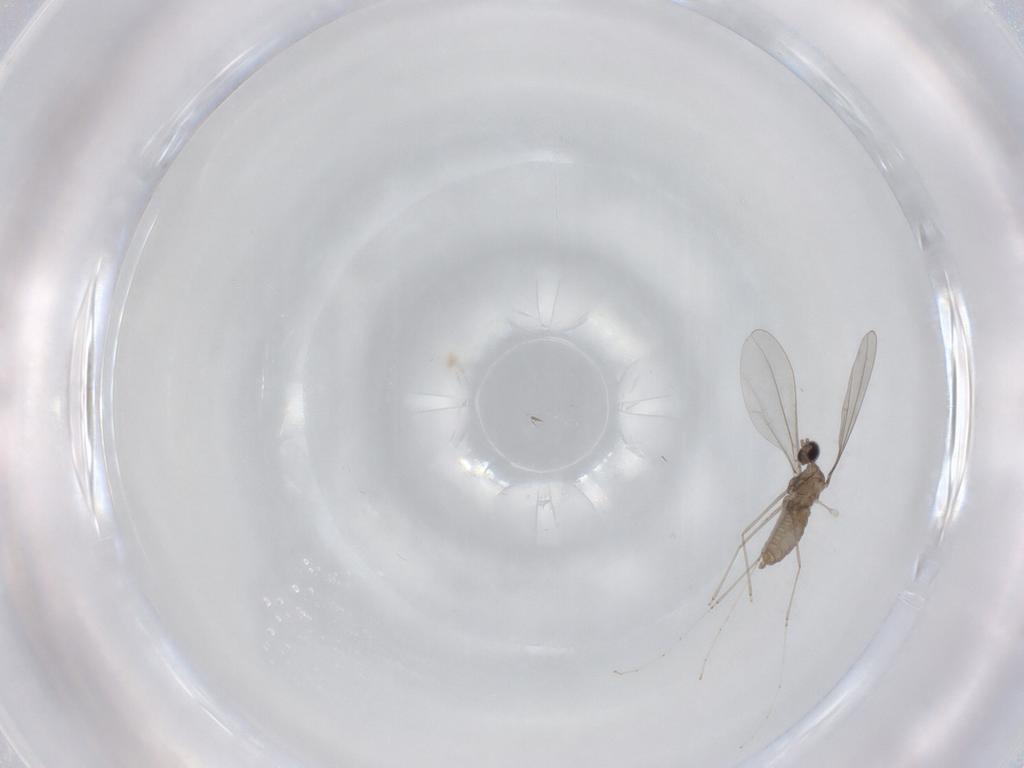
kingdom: Animalia
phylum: Arthropoda
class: Insecta
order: Diptera
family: Cecidomyiidae
